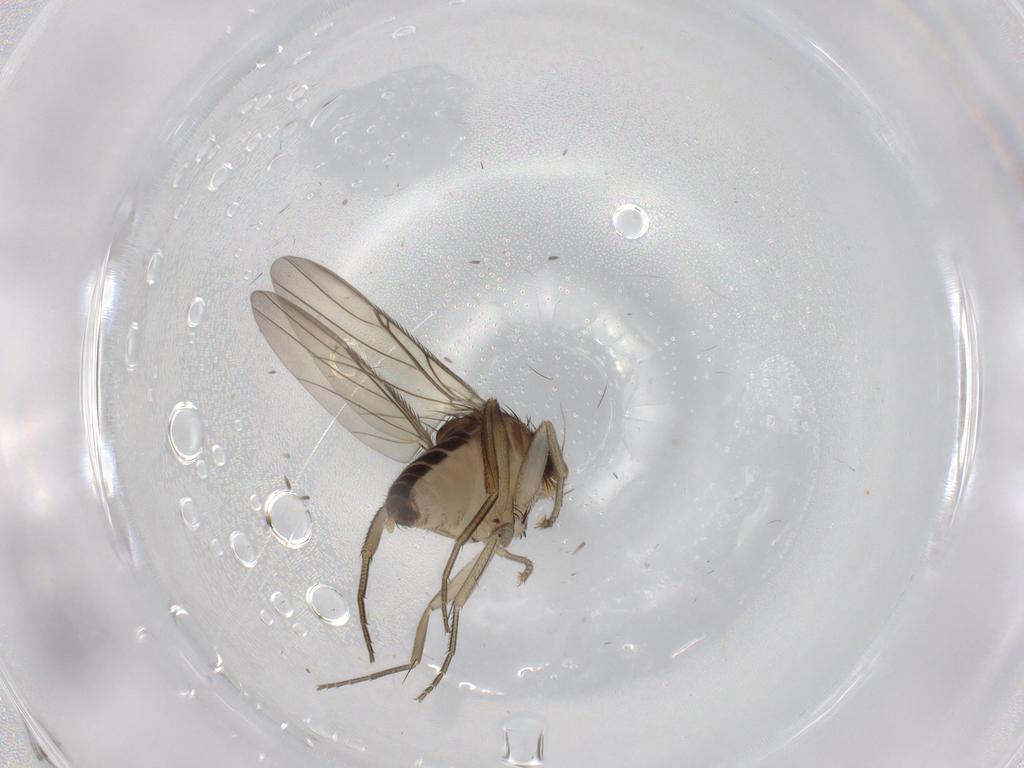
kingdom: Animalia
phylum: Arthropoda
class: Insecta
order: Diptera
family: Phoridae
